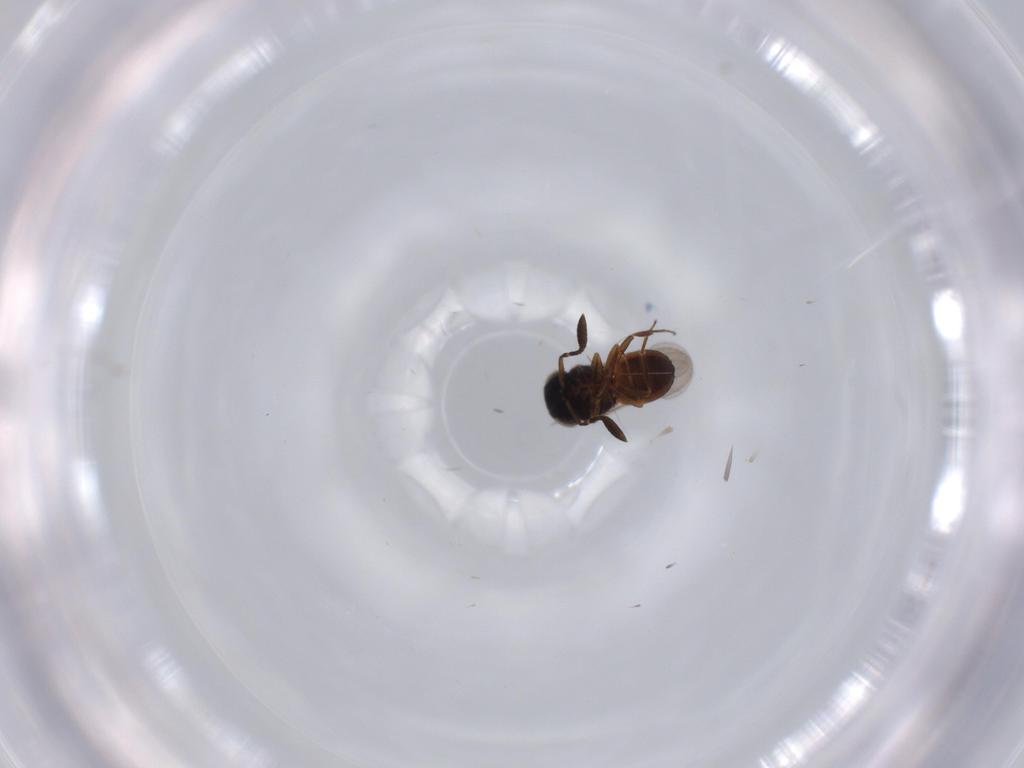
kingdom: Animalia
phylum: Arthropoda
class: Insecta
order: Coleoptera
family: Curculionidae
